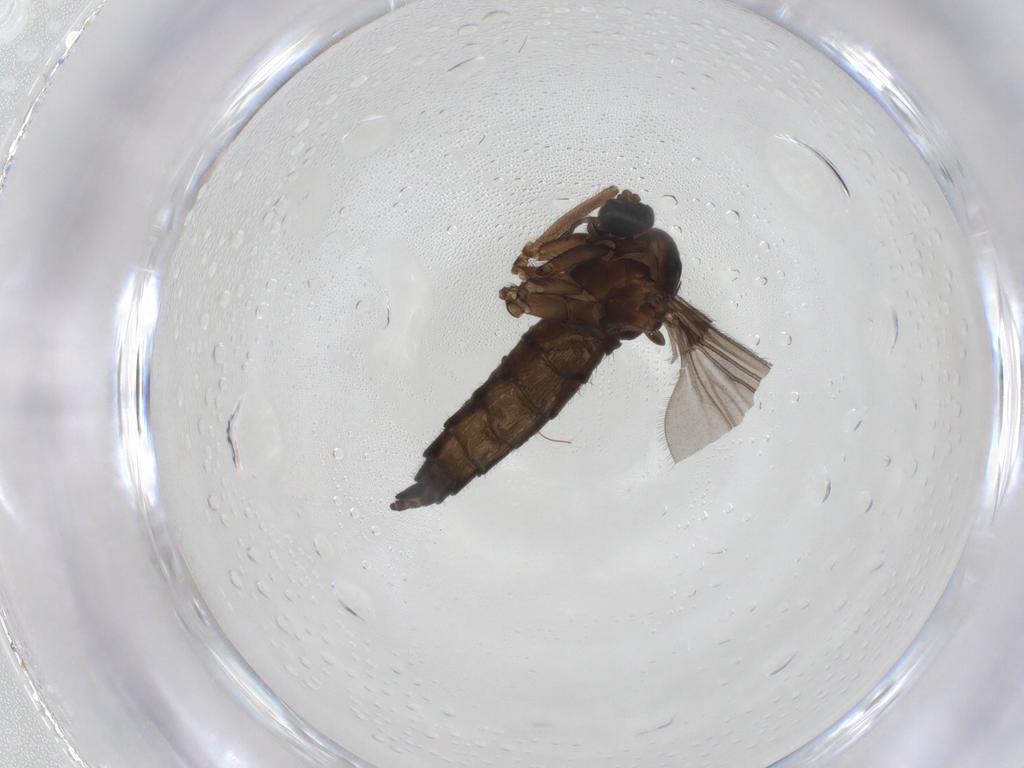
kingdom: Animalia
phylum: Arthropoda
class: Insecta
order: Diptera
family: Sciaridae
